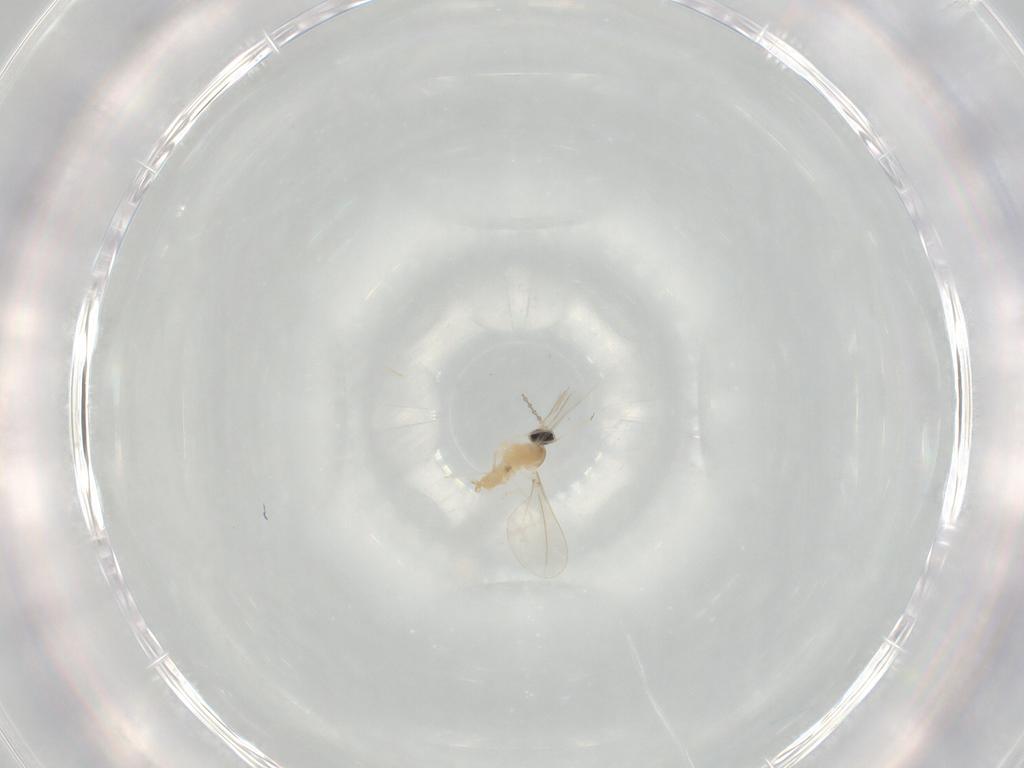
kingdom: Animalia
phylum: Arthropoda
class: Insecta
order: Diptera
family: Cecidomyiidae
